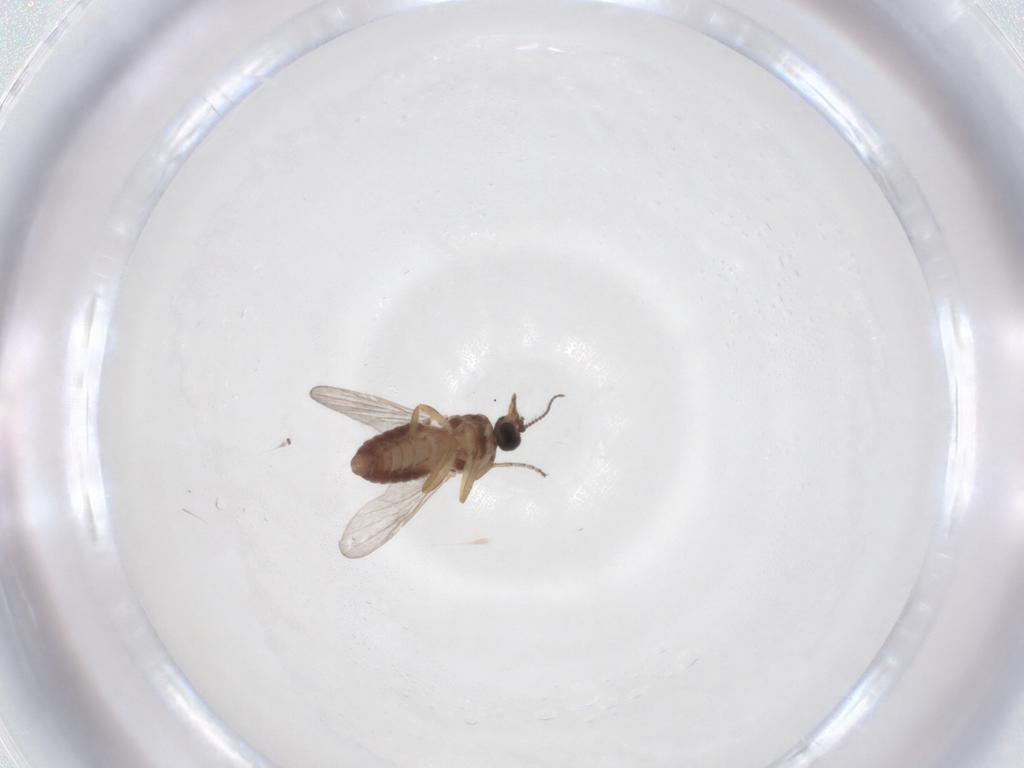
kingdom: Animalia
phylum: Arthropoda
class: Insecta
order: Diptera
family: Ceratopogonidae
